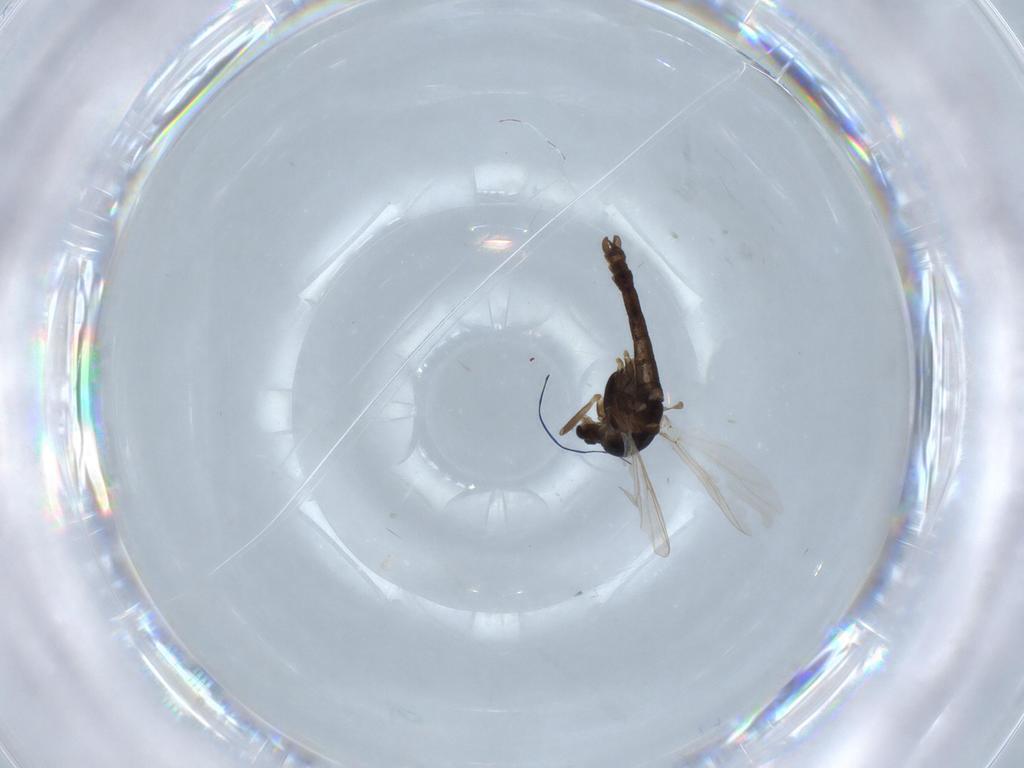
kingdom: Animalia
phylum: Arthropoda
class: Insecta
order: Diptera
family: Chironomidae
